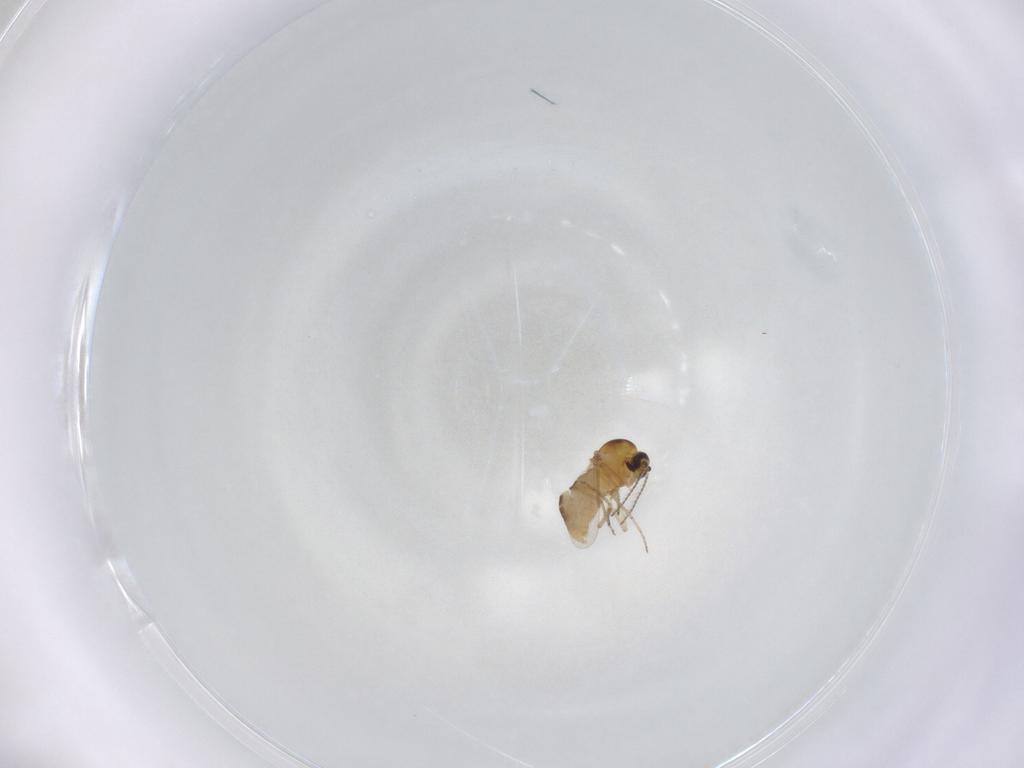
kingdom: Animalia
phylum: Arthropoda
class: Insecta
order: Diptera
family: Ceratopogonidae
